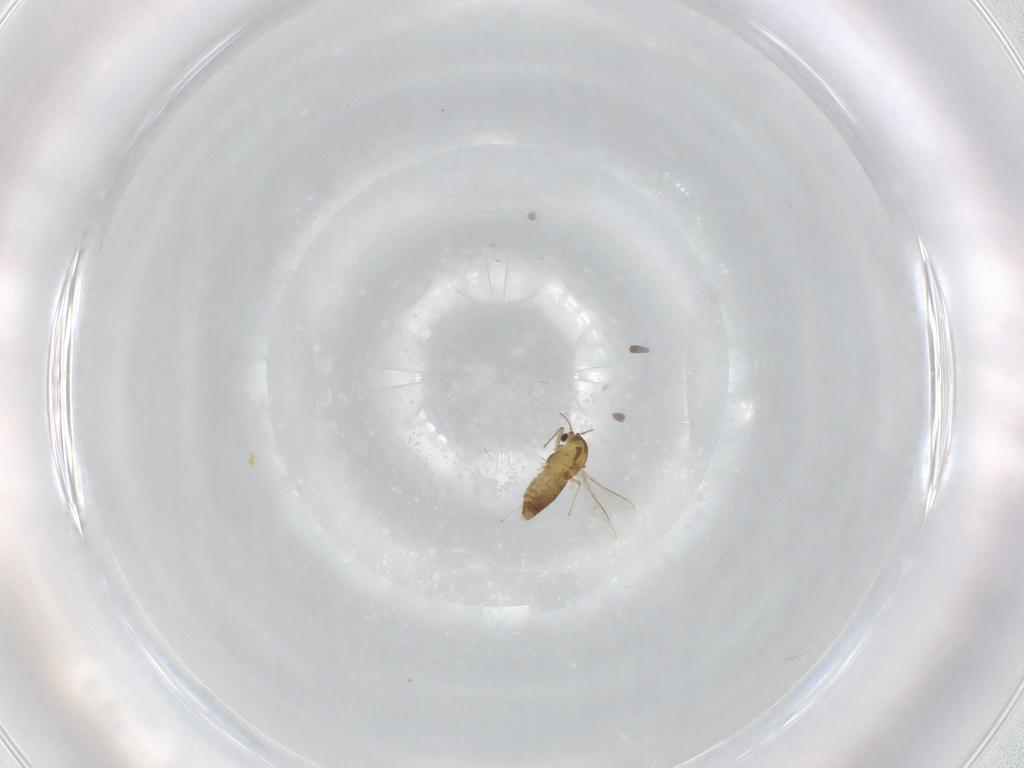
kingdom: Animalia
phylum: Arthropoda
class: Insecta
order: Diptera
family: Chironomidae
